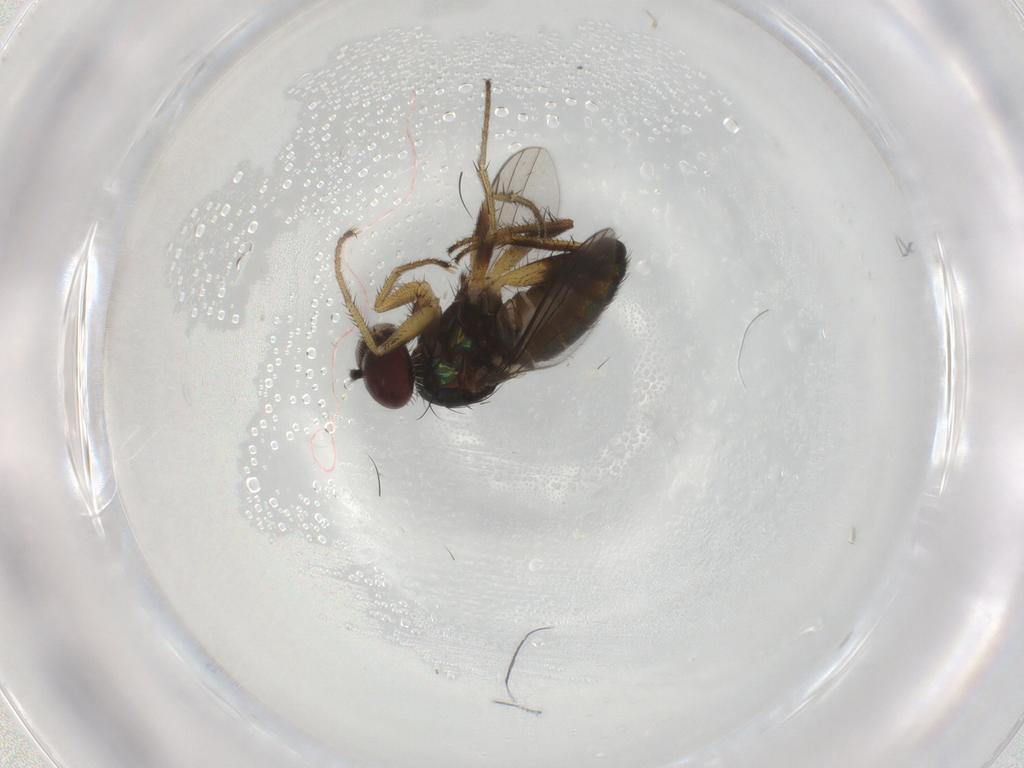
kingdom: Animalia
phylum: Arthropoda
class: Insecta
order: Diptera
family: Dolichopodidae
